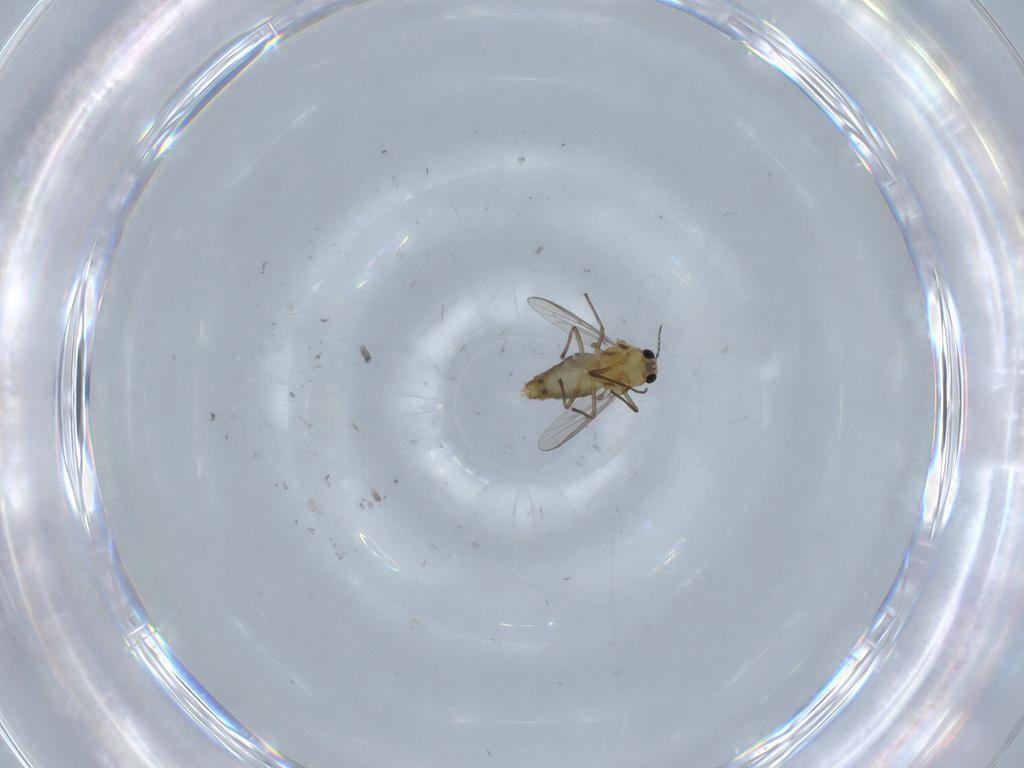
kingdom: Animalia
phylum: Arthropoda
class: Insecta
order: Diptera
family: Chironomidae
